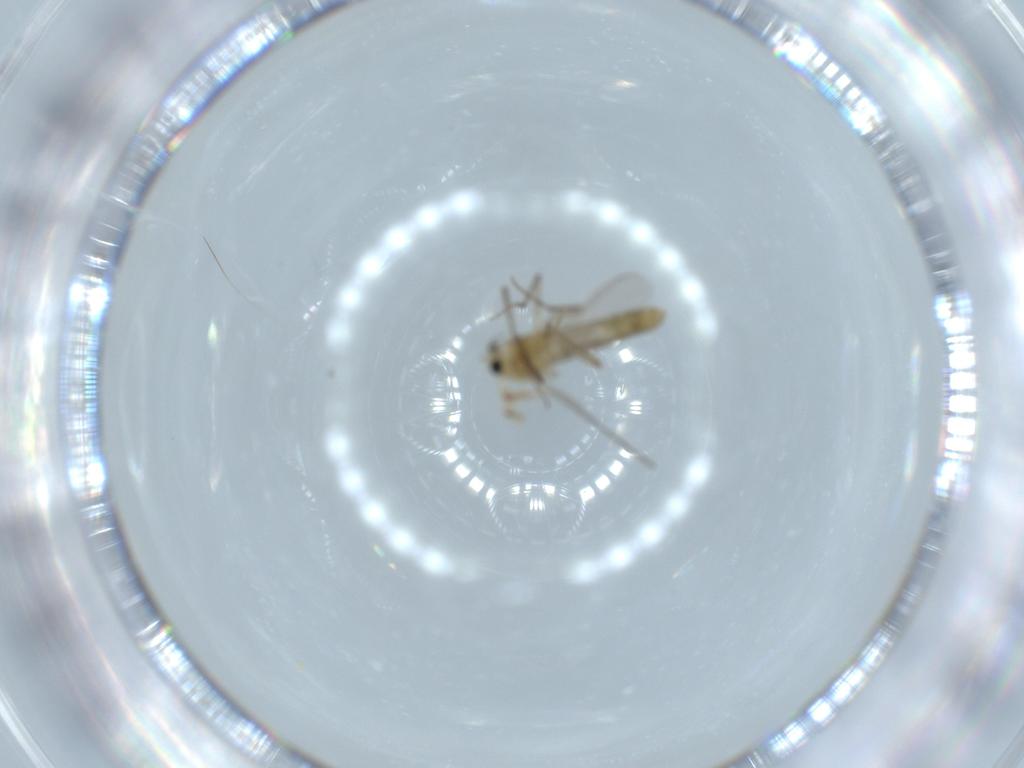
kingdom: Animalia
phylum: Arthropoda
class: Insecta
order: Diptera
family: Chironomidae
